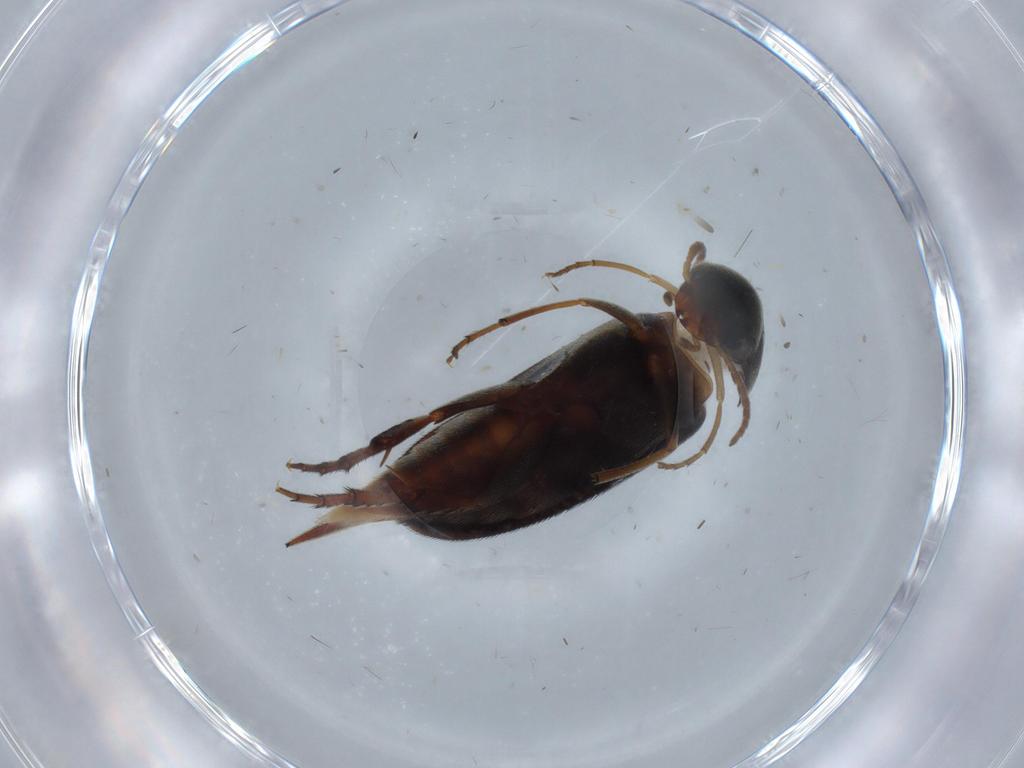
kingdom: Animalia
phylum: Arthropoda
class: Insecta
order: Coleoptera
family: Mordellidae
